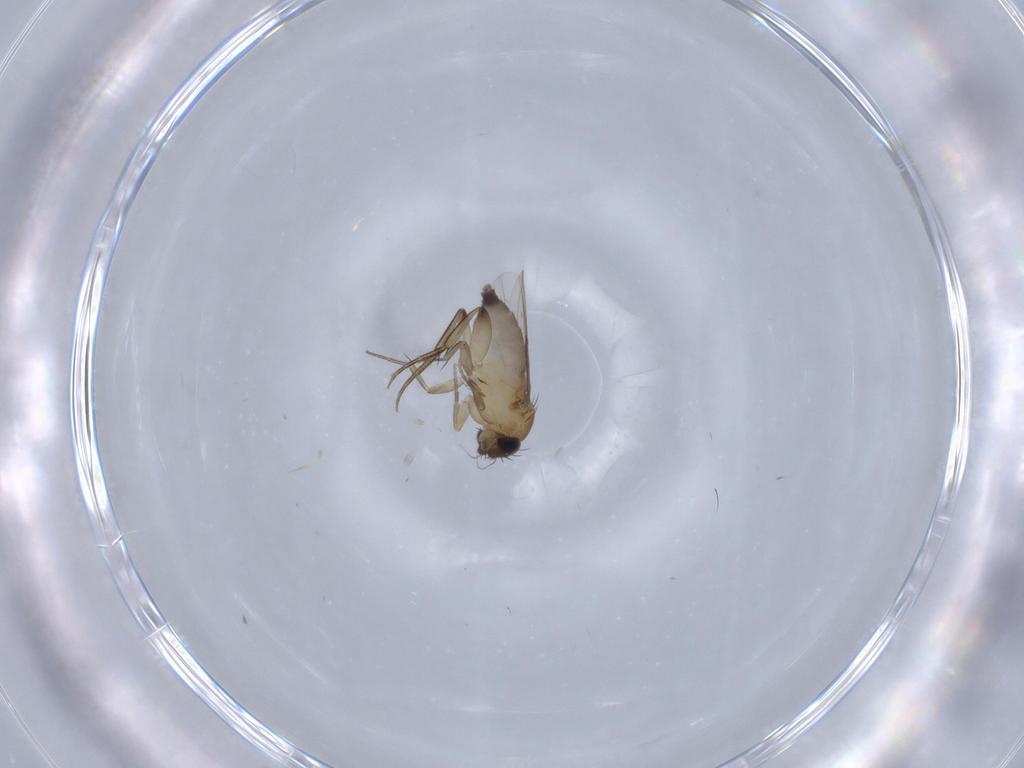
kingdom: Animalia
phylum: Arthropoda
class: Insecta
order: Diptera
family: Phoridae
